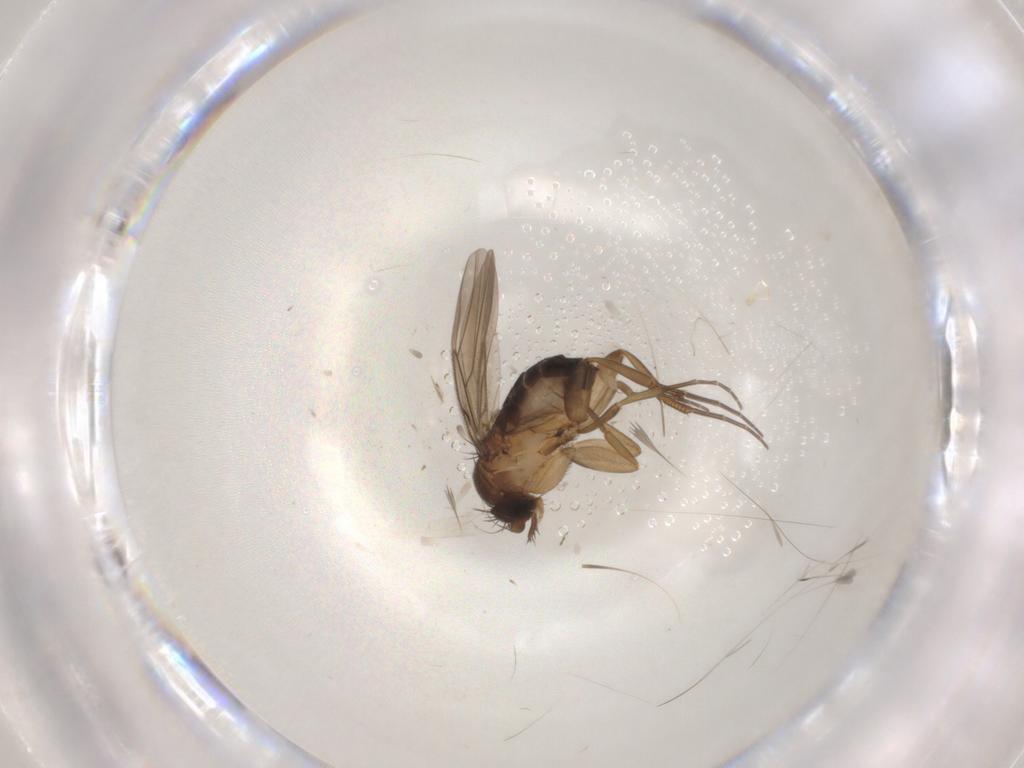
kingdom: Animalia
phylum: Arthropoda
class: Insecta
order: Diptera
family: Phoridae
